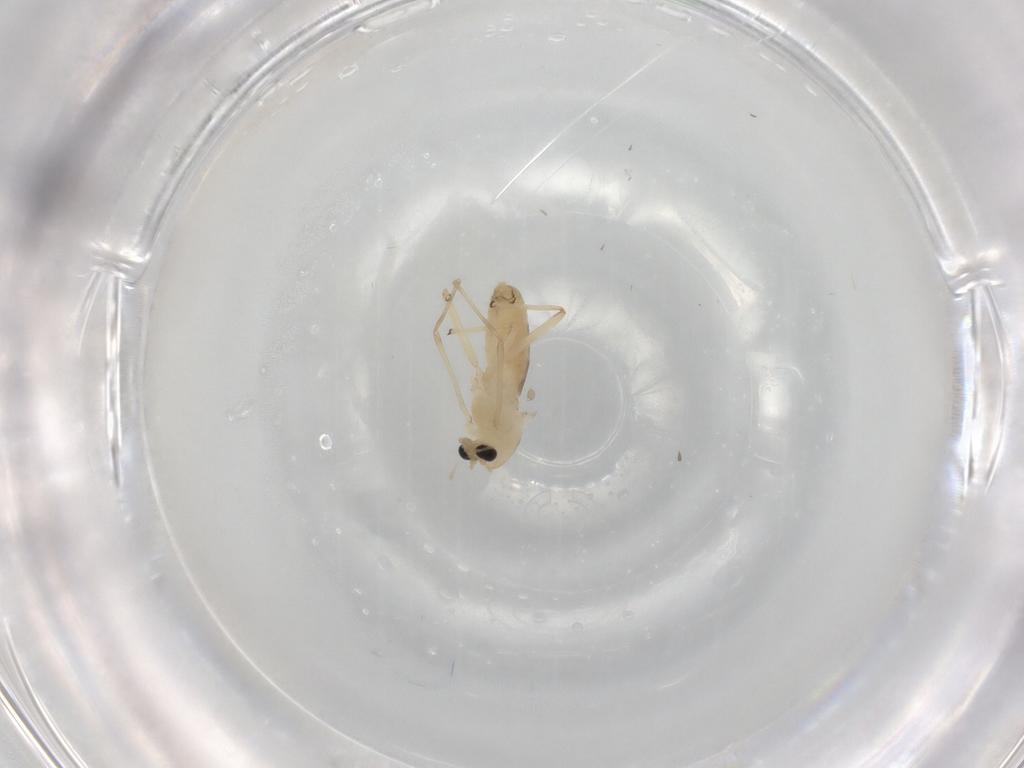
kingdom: Animalia
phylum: Arthropoda
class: Insecta
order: Diptera
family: Chironomidae
